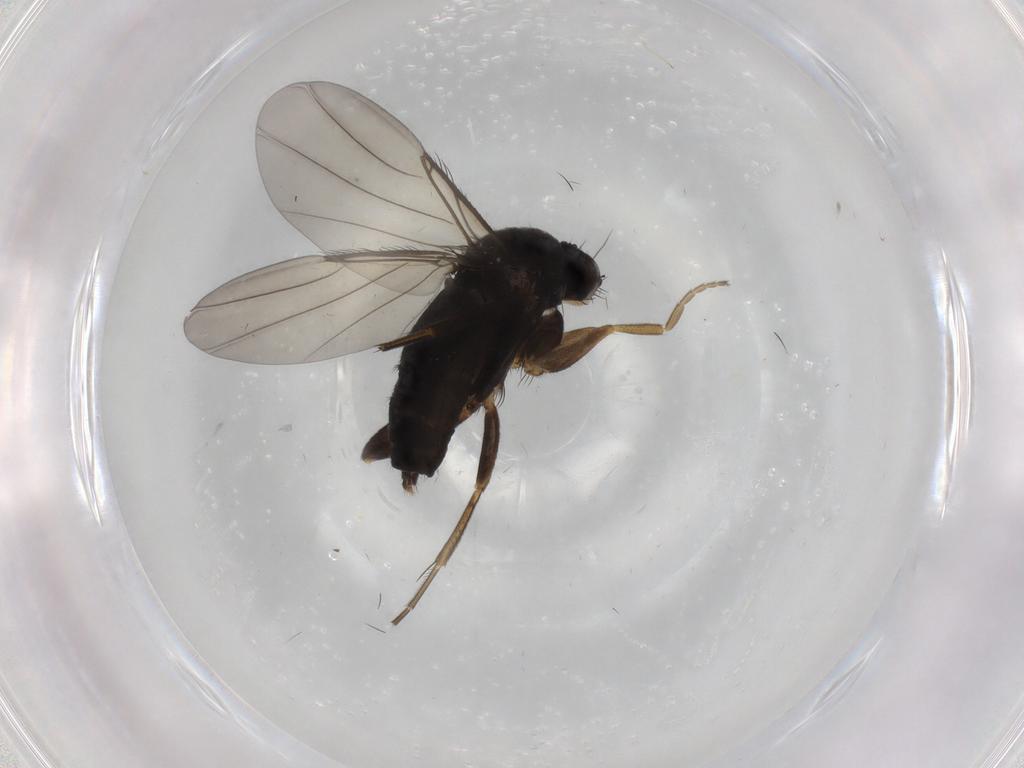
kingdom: Animalia
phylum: Arthropoda
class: Insecta
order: Diptera
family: Phoridae
